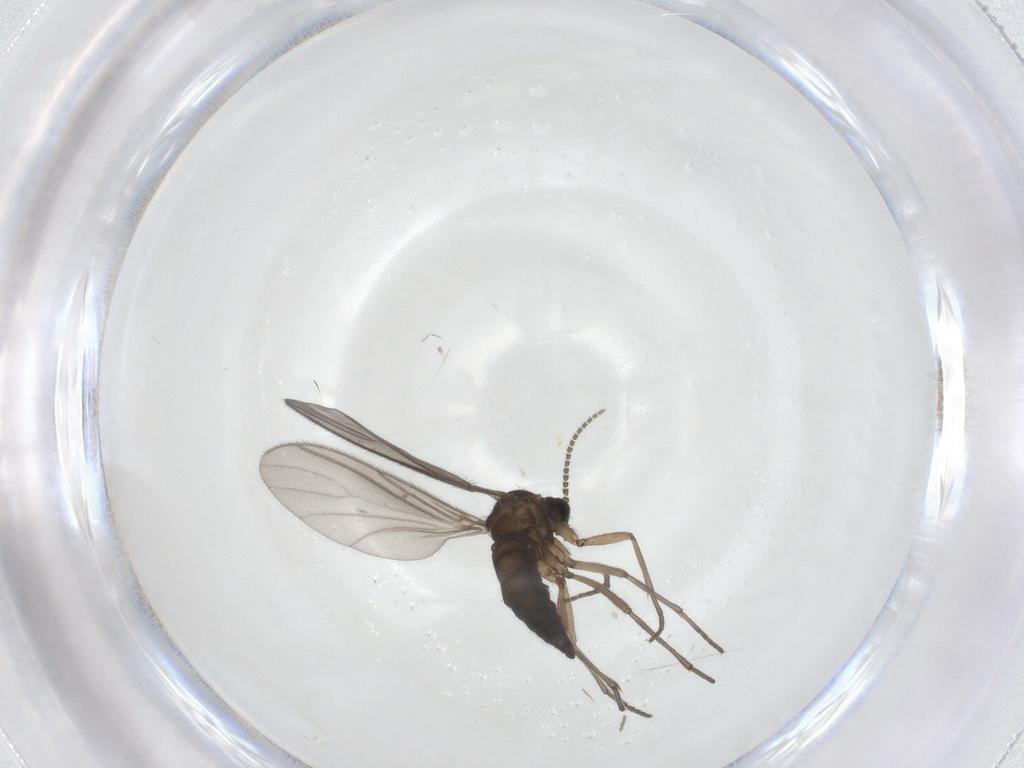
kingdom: Animalia
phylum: Arthropoda
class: Insecta
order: Diptera
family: Sciaridae
